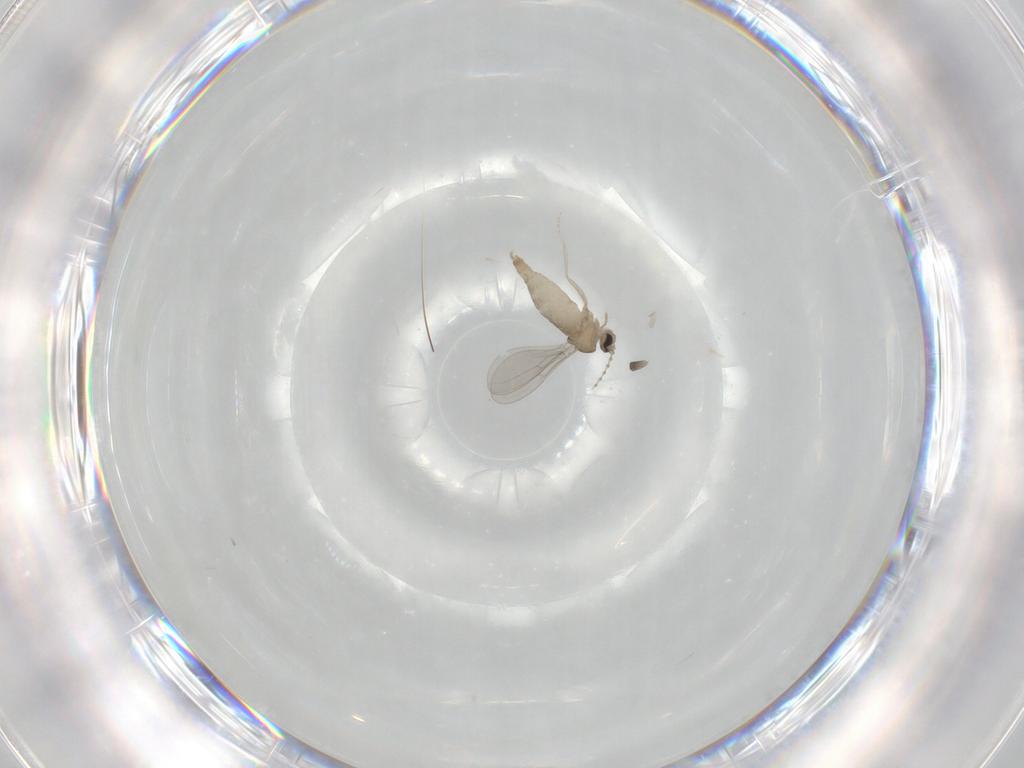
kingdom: Animalia
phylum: Arthropoda
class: Insecta
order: Diptera
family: Cecidomyiidae
